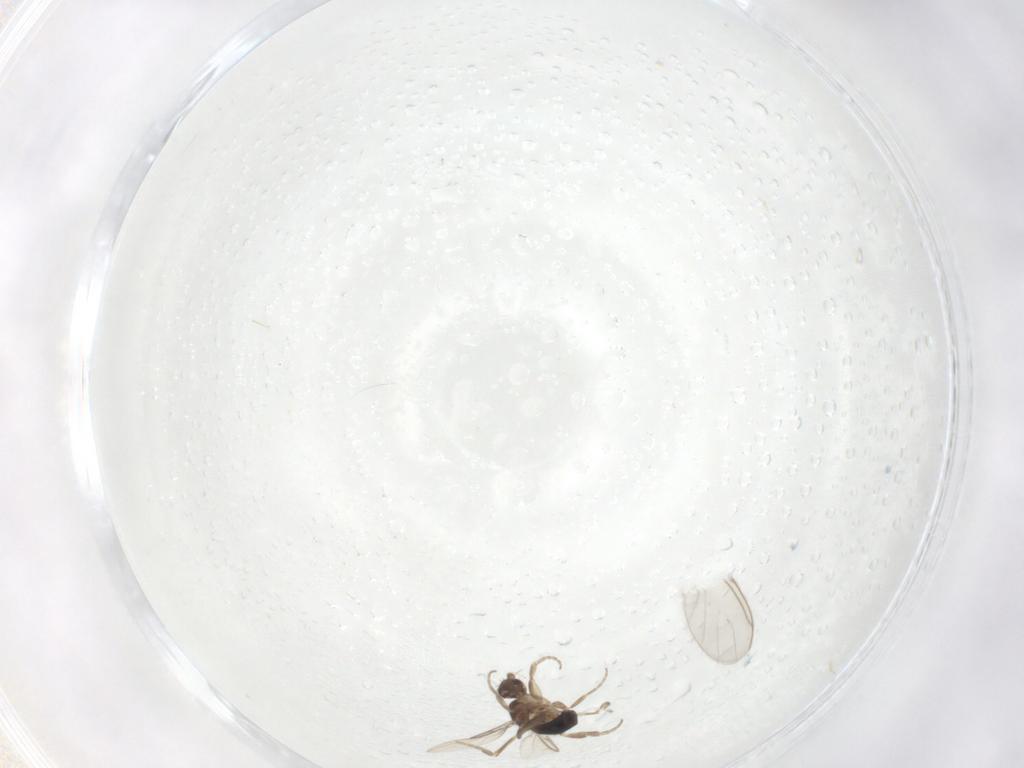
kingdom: Animalia
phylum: Arthropoda
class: Insecta
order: Diptera
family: Phoridae
